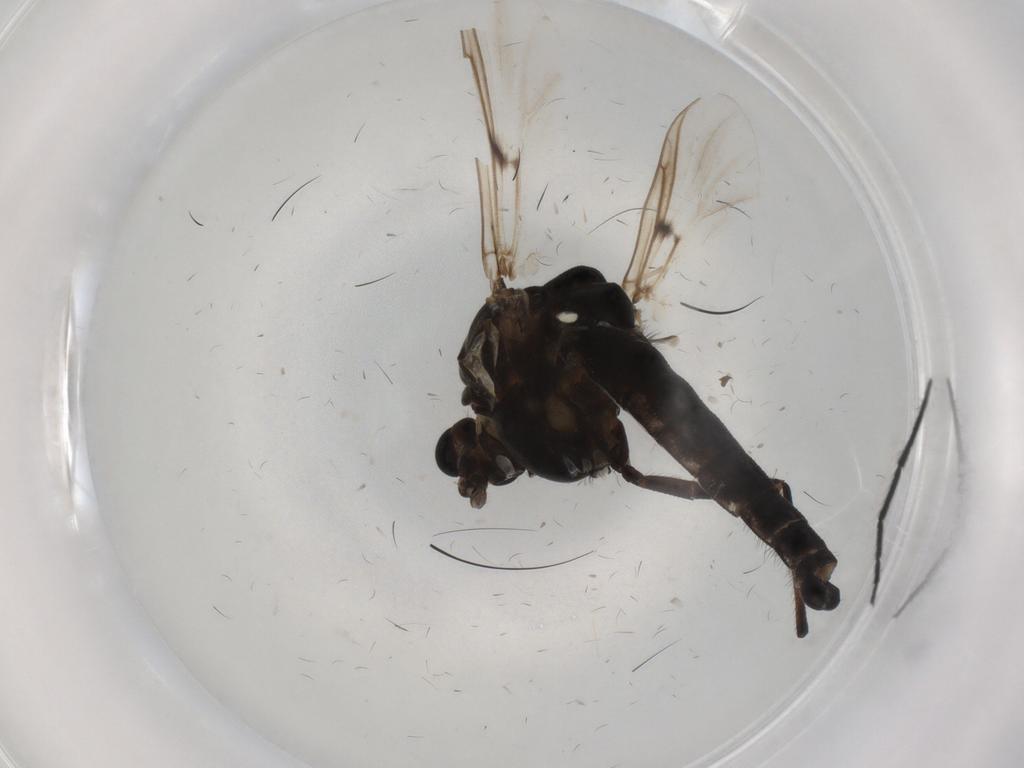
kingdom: Animalia
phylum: Arthropoda
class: Insecta
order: Diptera
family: Chironomidae
